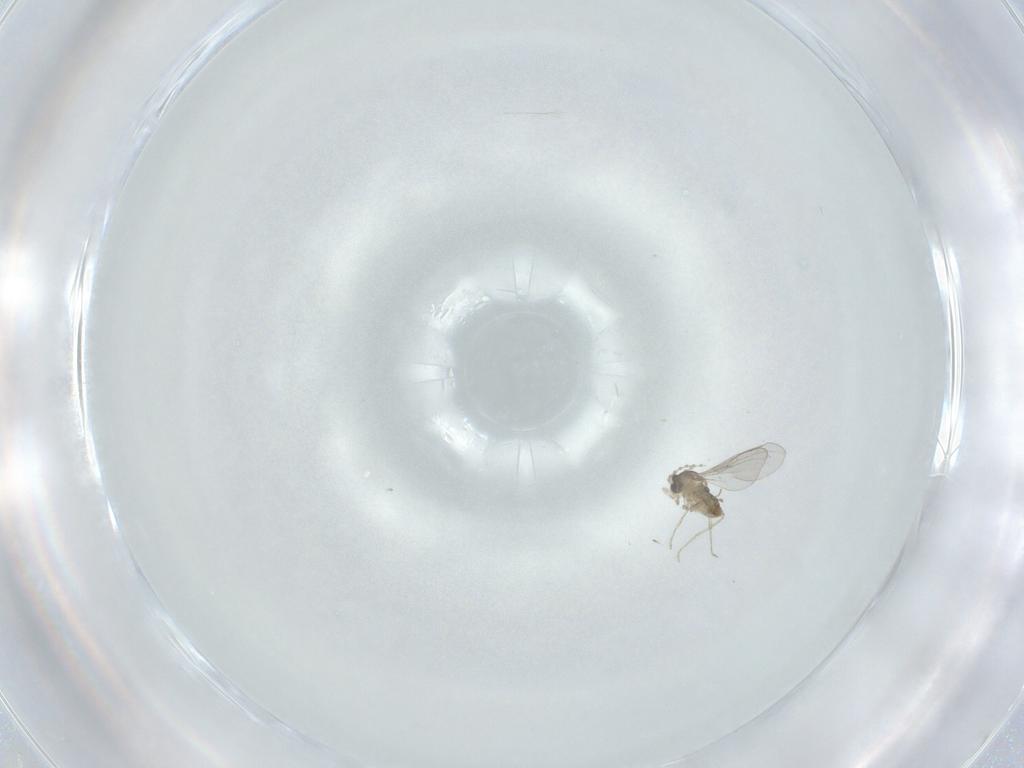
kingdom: Animalia
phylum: Arthropoda
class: Insecta
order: Diptera
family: Cecidomyiidae
